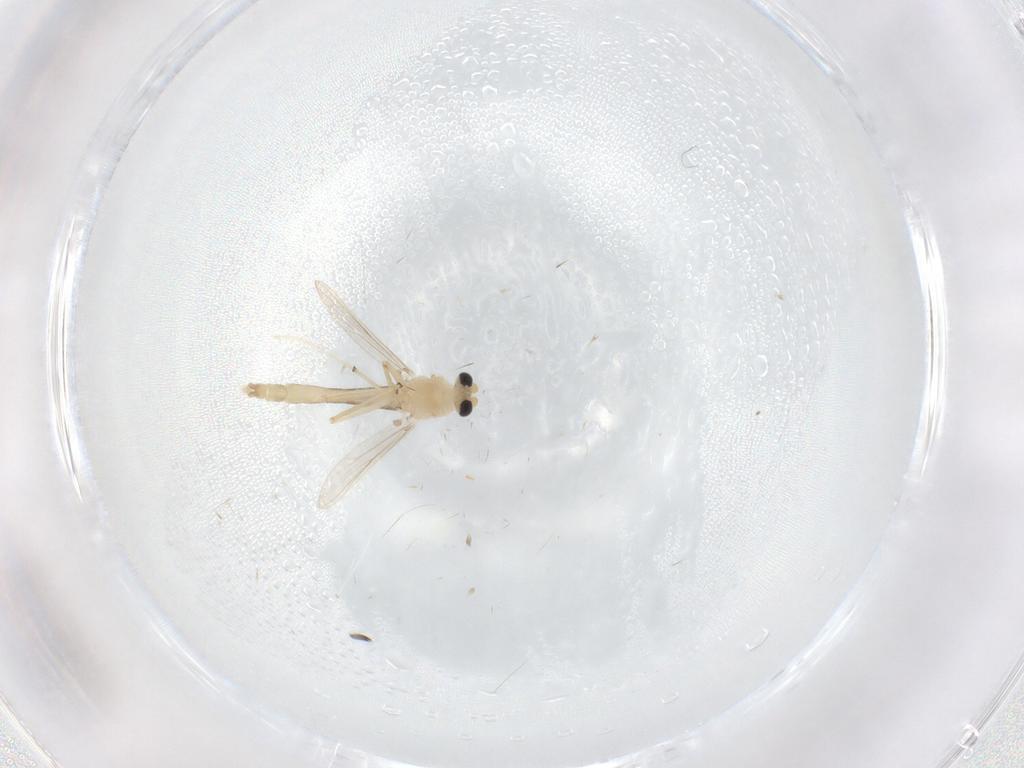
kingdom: Animalia
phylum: Arthropoda
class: Insecta
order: Diptera
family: Chironomidae
